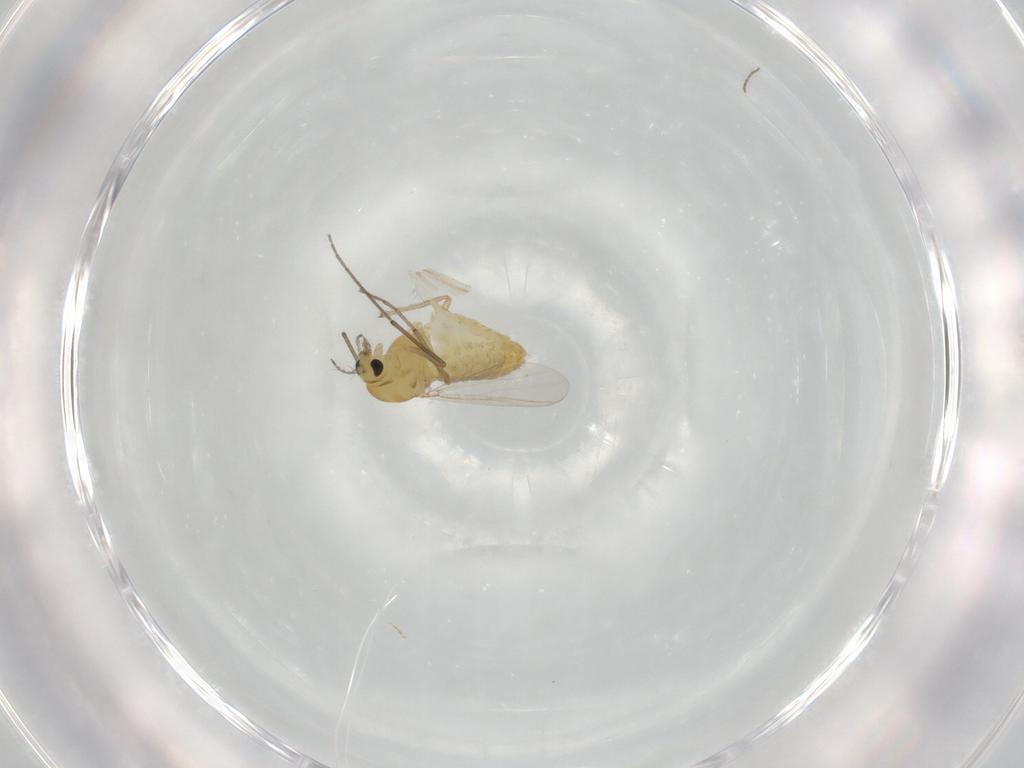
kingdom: Animalia
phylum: Arthropoda
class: Insecta
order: Diptera
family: Chironomidae
